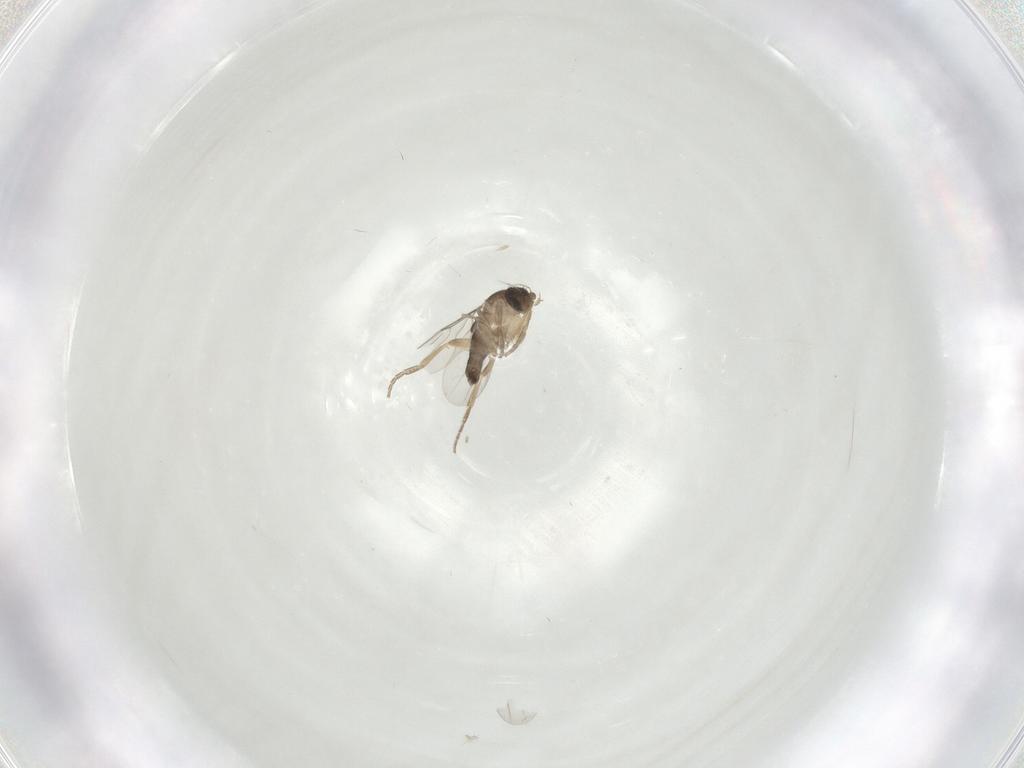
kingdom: Animalia
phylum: Arthropoda
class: Insecta
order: Diptera
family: Phoridae
